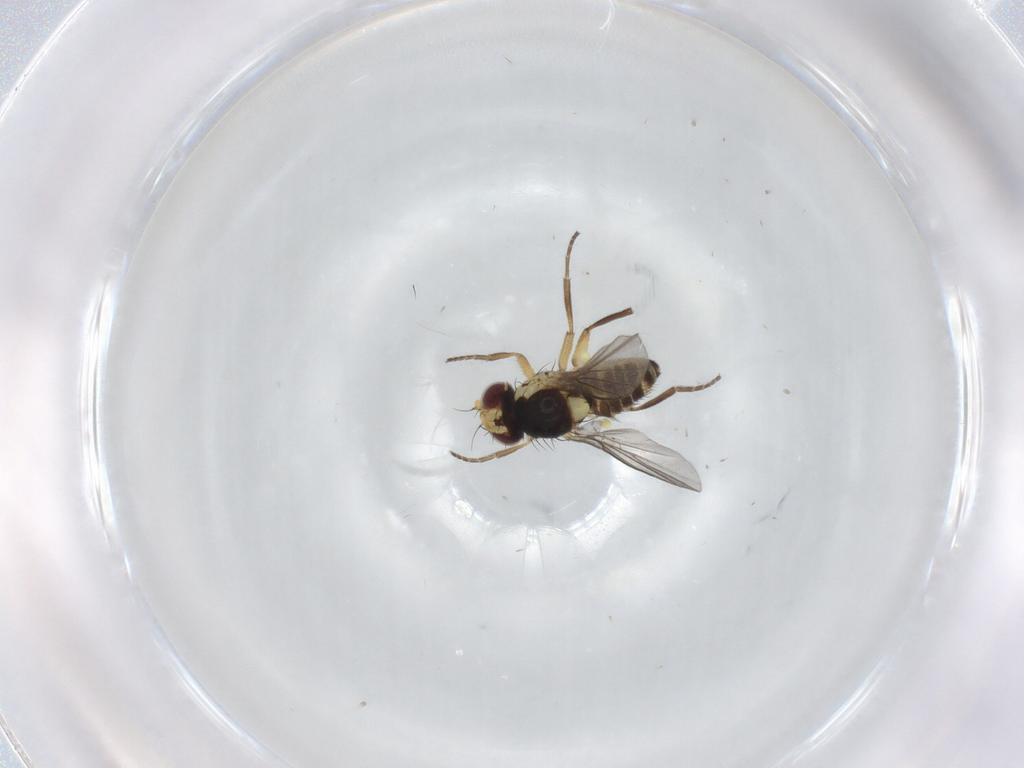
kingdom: Animalia
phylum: Arthropoda
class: Insecta
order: Diptera
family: Agromyzidae
